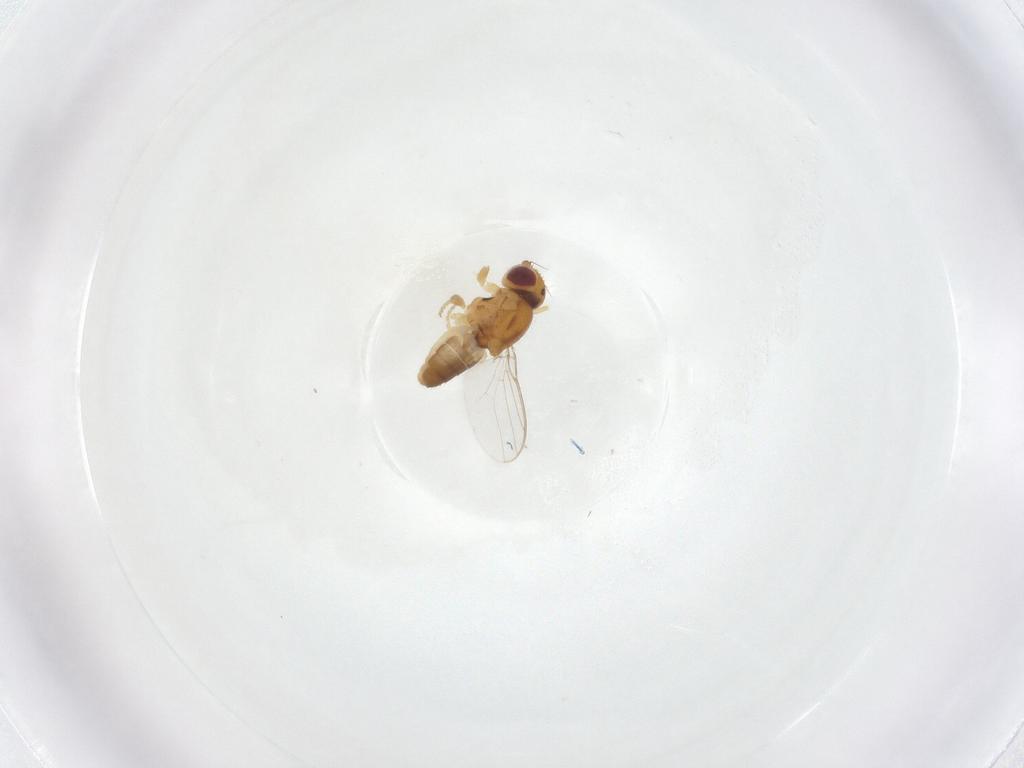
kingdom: Animalia
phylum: Arthropoda
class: Insecta
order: Diptera
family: Chloropidae
